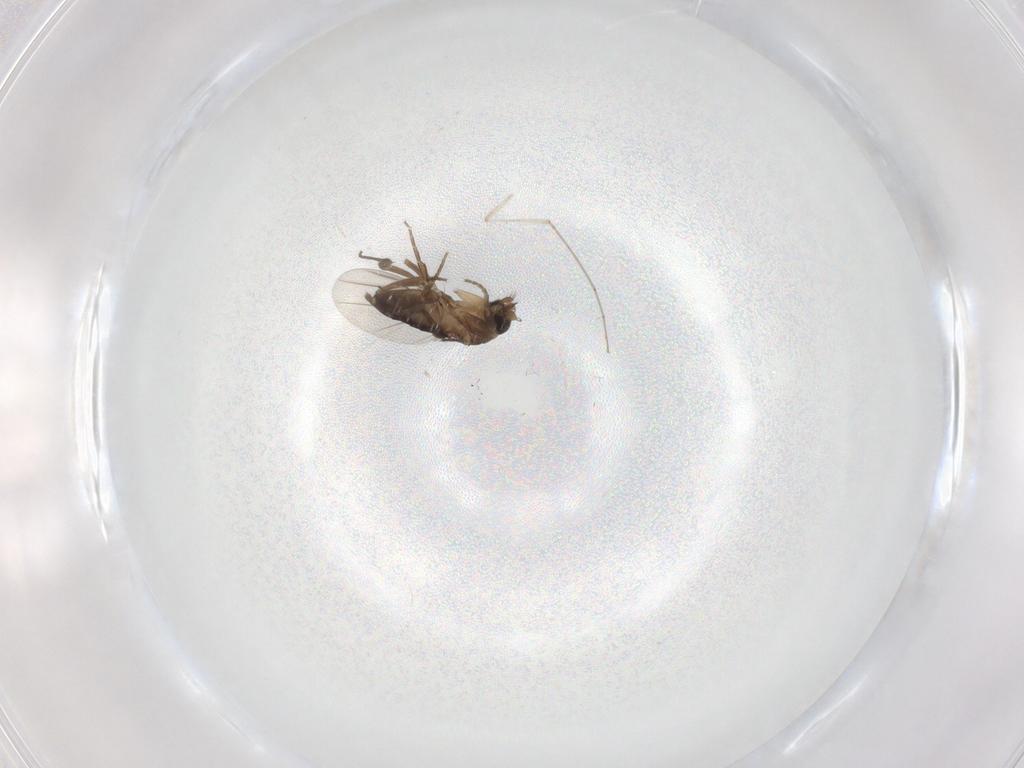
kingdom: Animalia
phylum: Arthropoda
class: Insecta
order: Diptera
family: Phoridae
